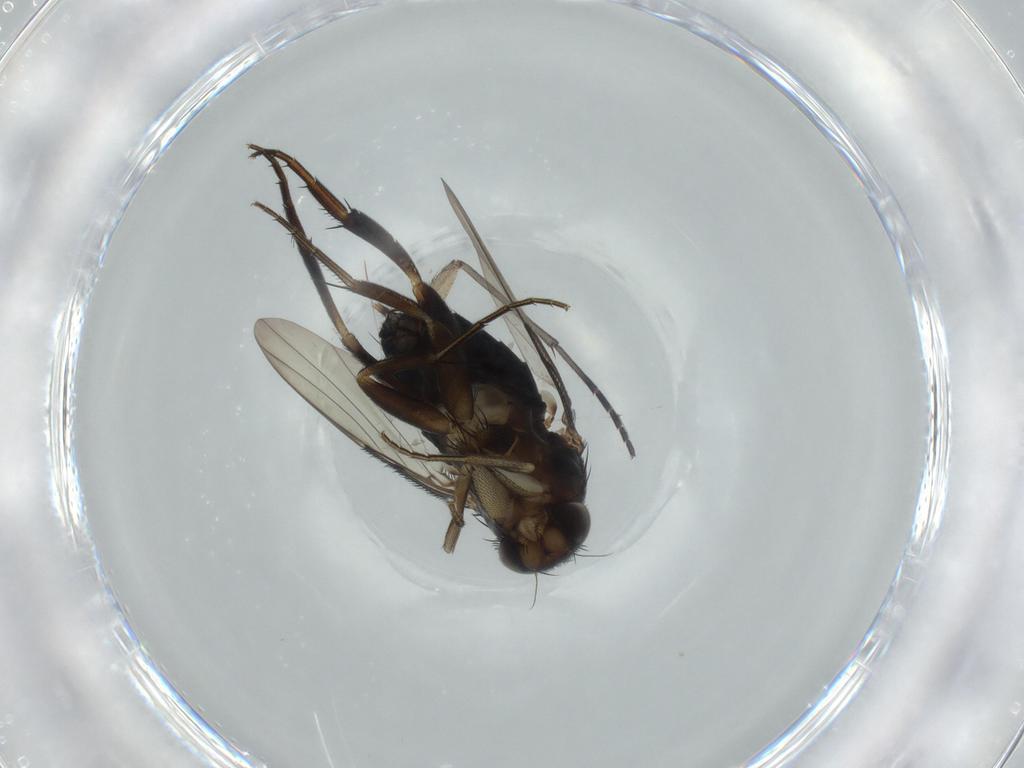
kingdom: Animalia
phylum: Arthropoda
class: Insecta
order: Diptera
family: Phoridae
